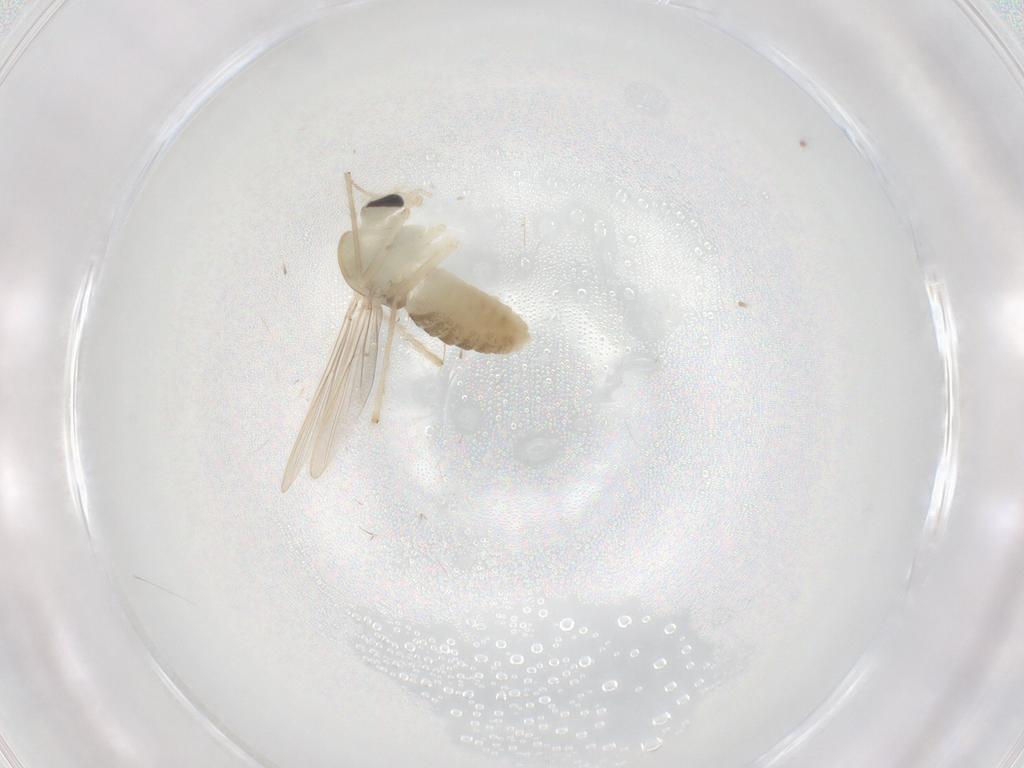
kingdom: Animalia
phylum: Arthropoda
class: Insecta
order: Diptera
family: Chironomidae
